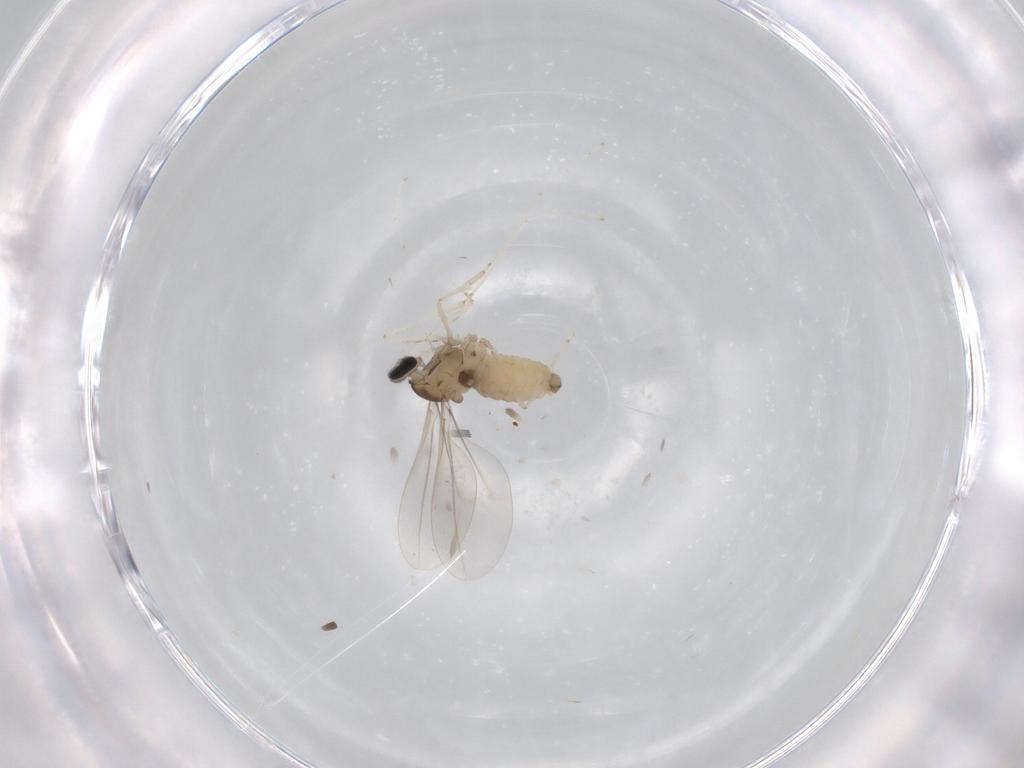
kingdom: Animalia
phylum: Arthropoda
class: Insecta
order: Diptera
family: Cecidomyiidae
